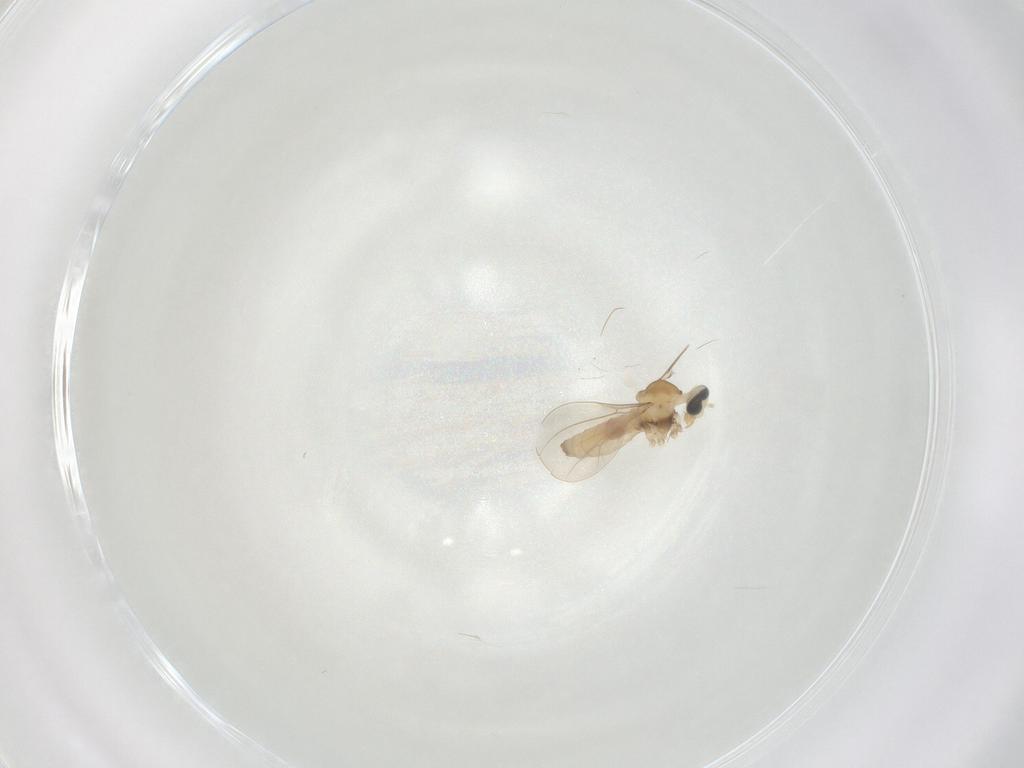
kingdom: Animalia
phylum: Arthropoda
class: Insecta
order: Diptera
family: Cecidomyiidae
